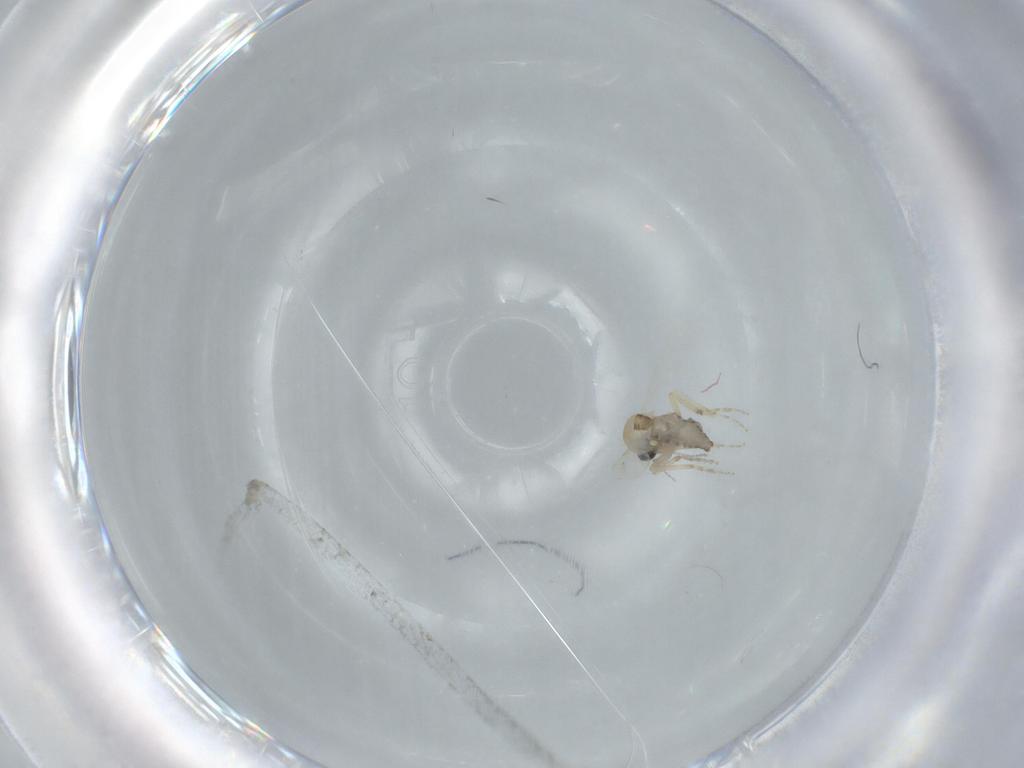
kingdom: Animalia
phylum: Arthropoda
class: Insecta
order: Diptera
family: Ceratopogonidae
